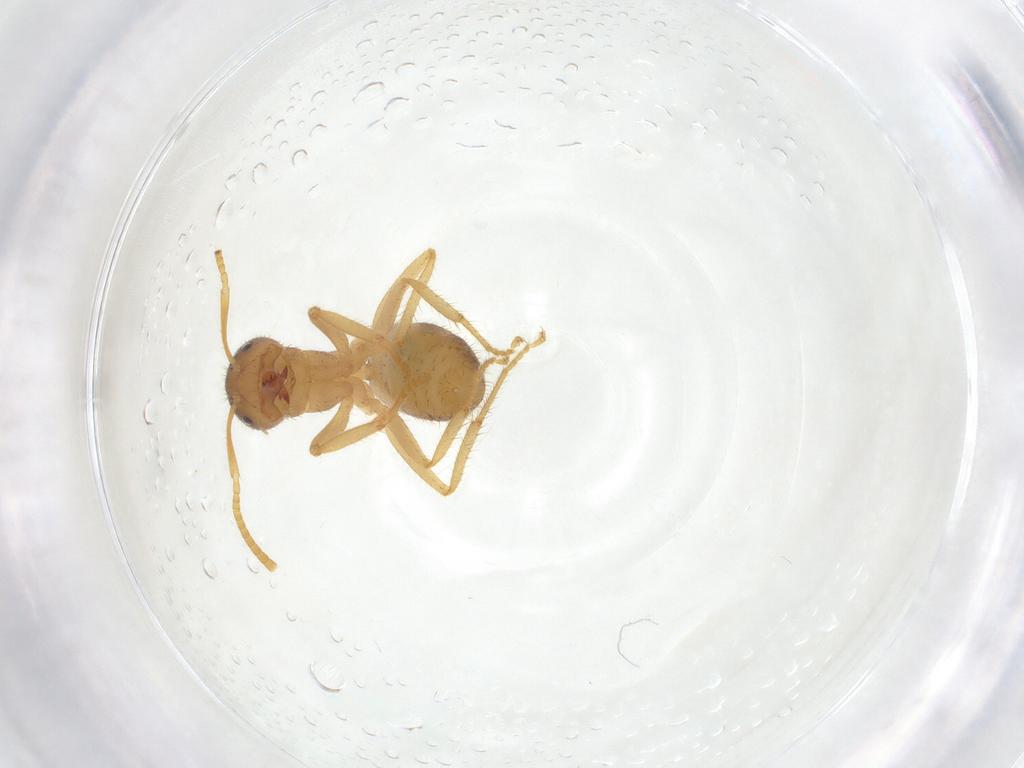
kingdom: Animalia
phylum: Arthropoda
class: Insecta
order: Hymenoptera
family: Formicidae
